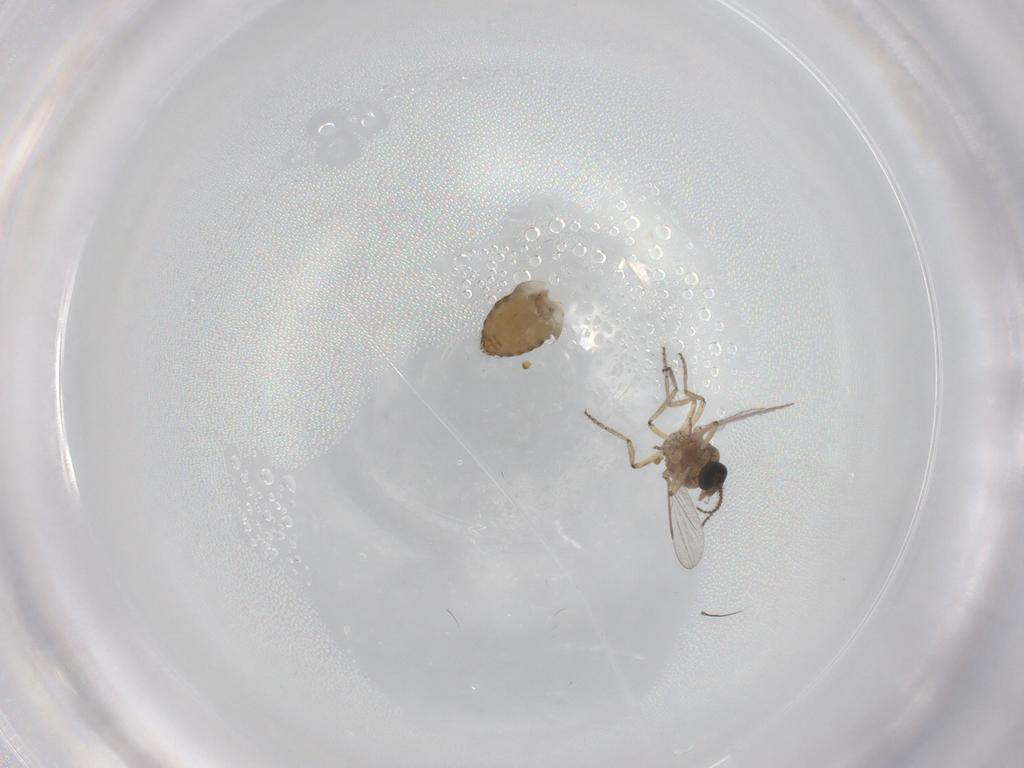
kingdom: Animalia
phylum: Arthropoda
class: Insecta
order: Diptera
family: Ceratopogonidae
